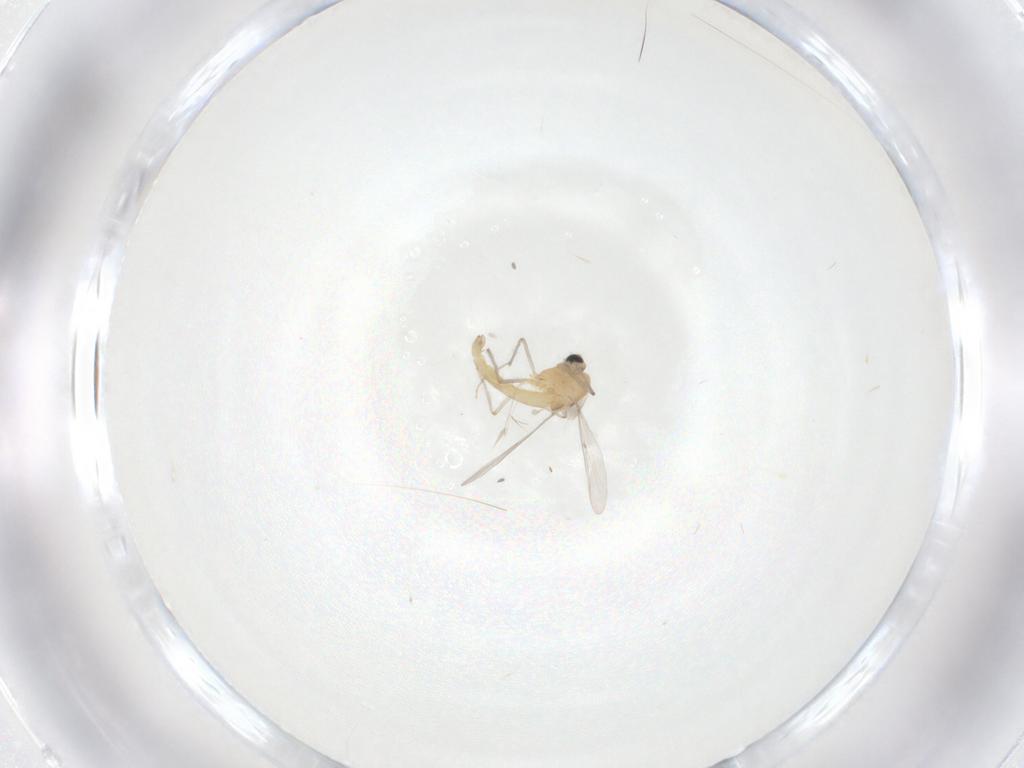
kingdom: Animalia
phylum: Arthropoda
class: Insecta
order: Diptera
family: Chironomidae
